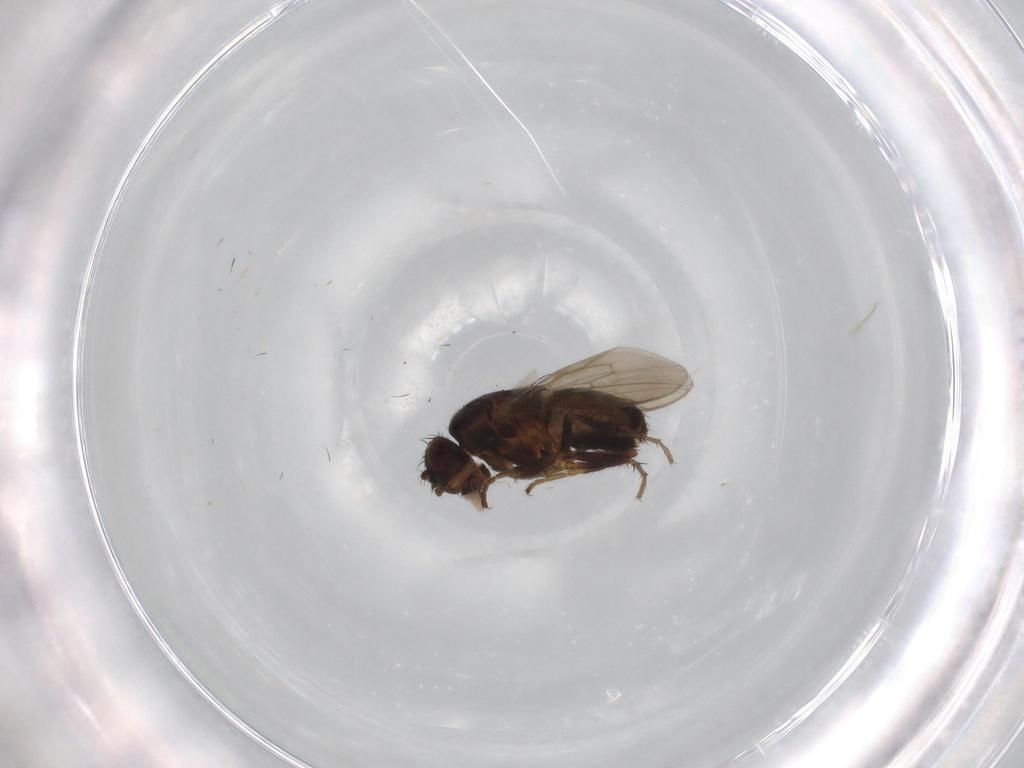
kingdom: Animalia
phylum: Arthropoda
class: Insecta
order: Diptera
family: Sphaeroceridae
